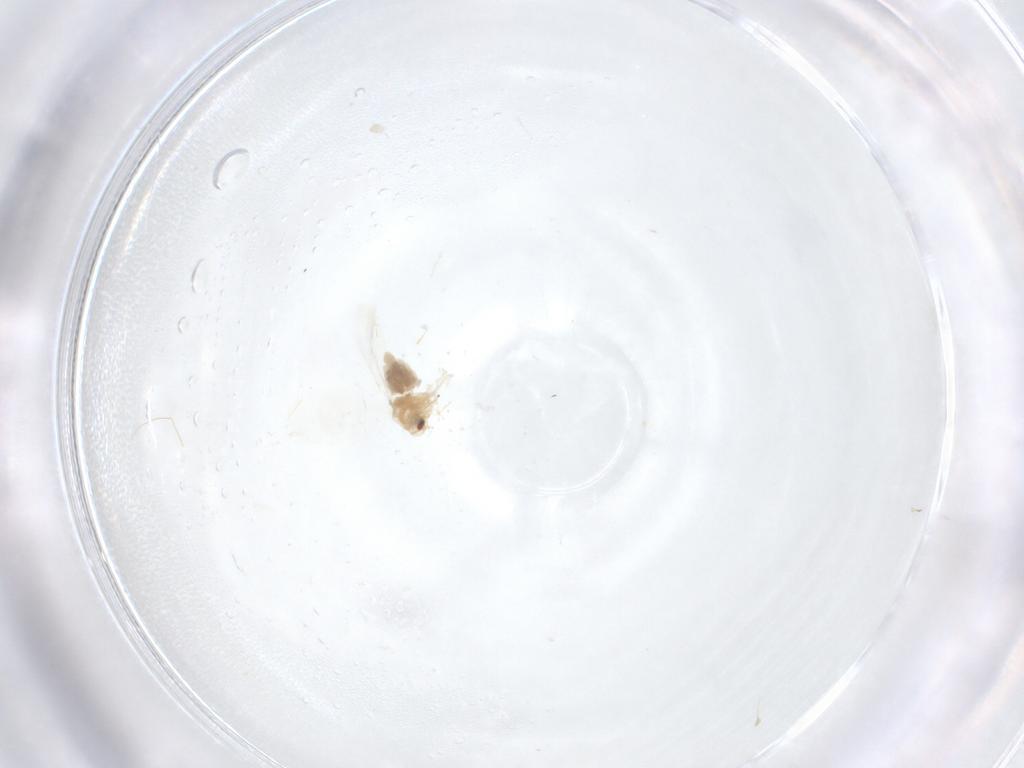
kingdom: Animalia
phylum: Arthropoda
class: Insecta
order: Hemiptera
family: Aleyrodidae
